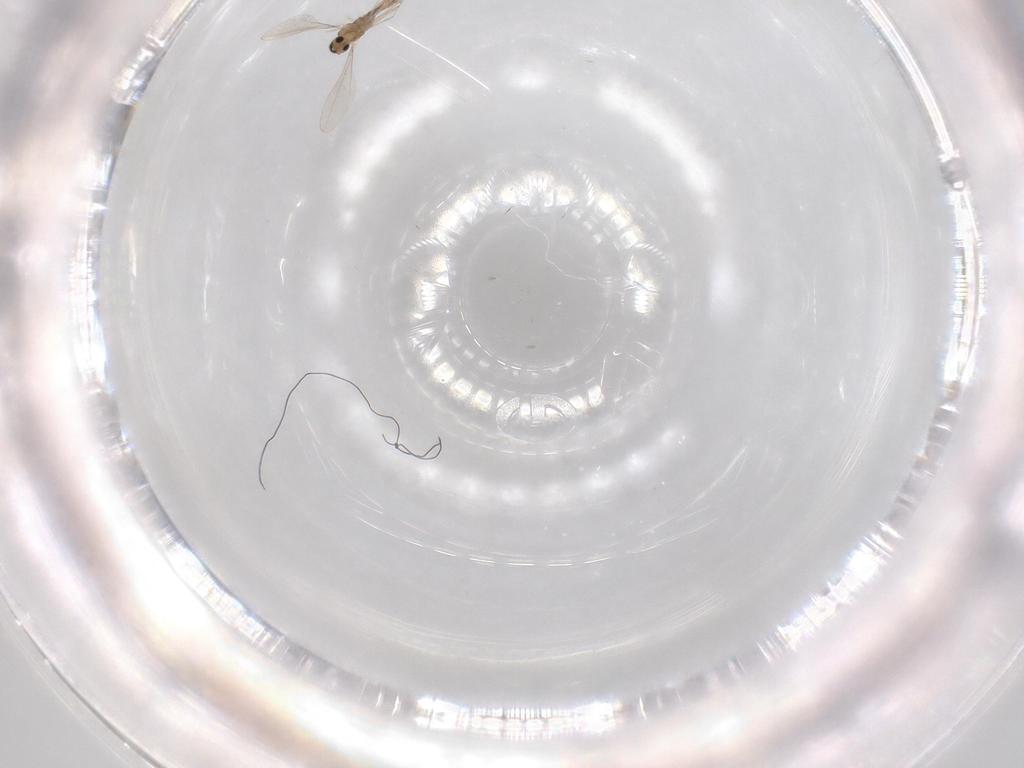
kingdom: Animalia
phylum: Arthropoda
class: Insecta
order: Diptera
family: Cecidomyiidae
